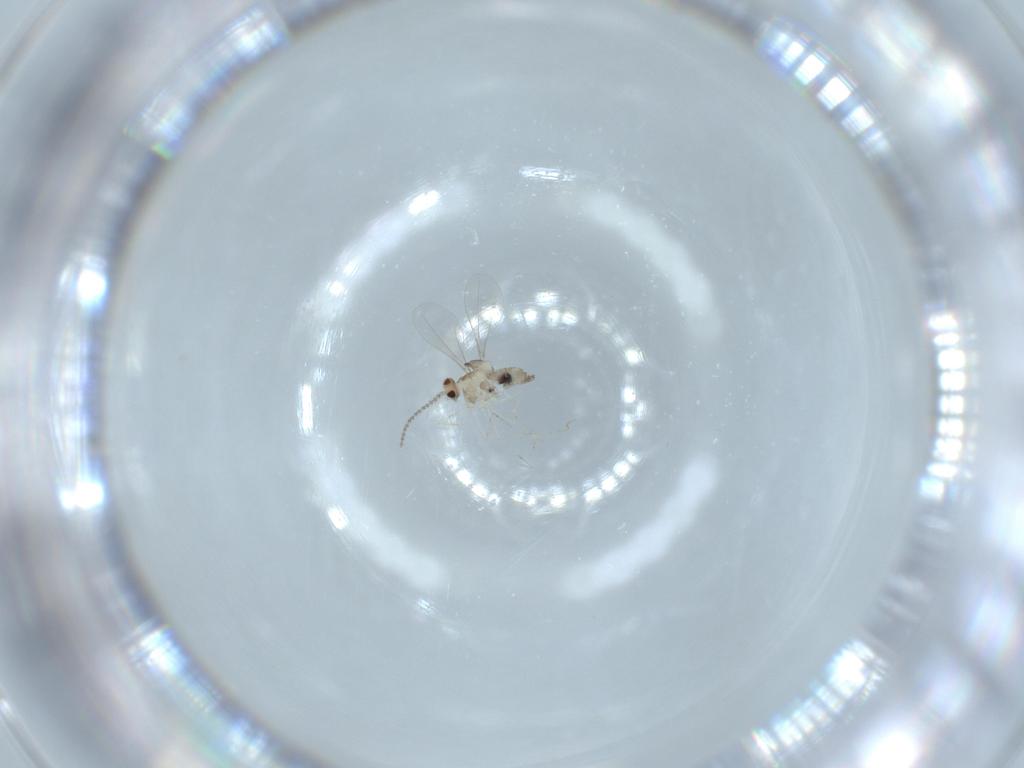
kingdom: Animalia
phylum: Arthropoda
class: Insecta
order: Diptera
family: Cecidomyiidae
